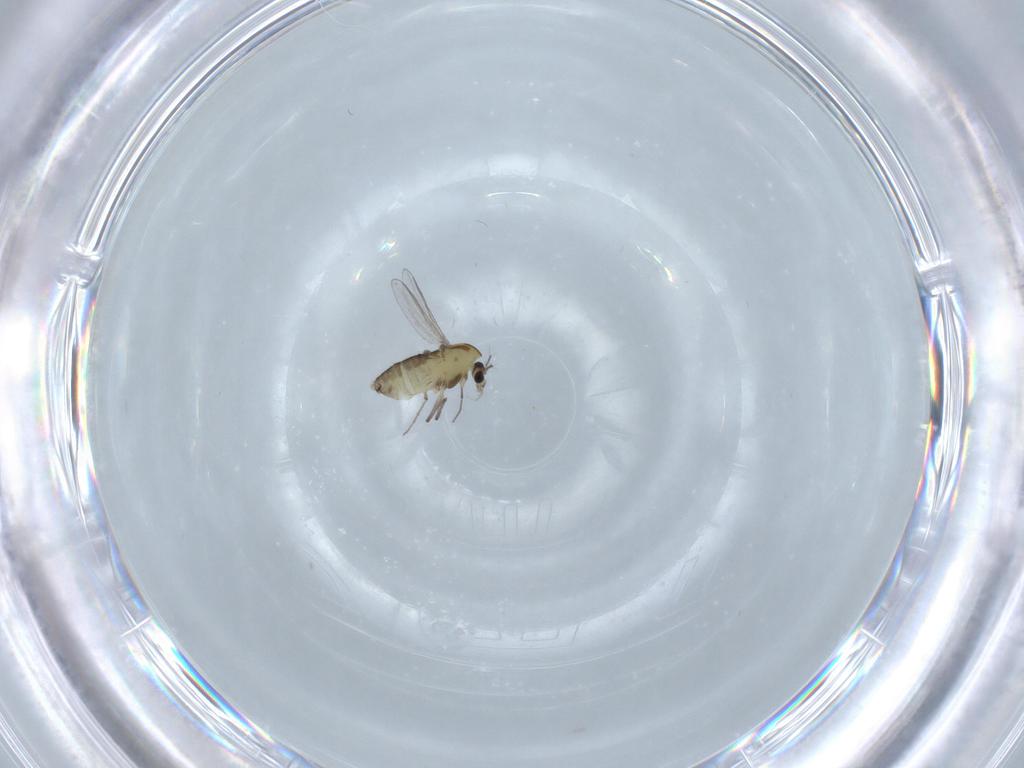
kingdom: Animalia
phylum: Arthropoda
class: Insecta
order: Diptera
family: Chironomidae
